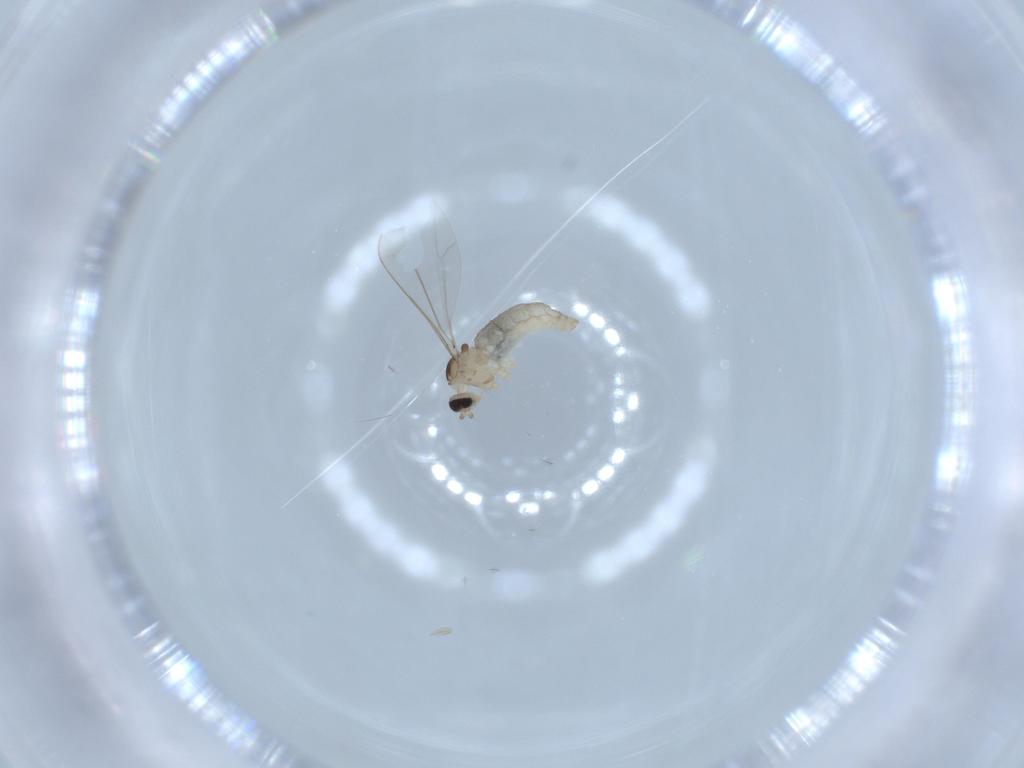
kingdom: Animalia
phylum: Arthropoda
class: Insecta
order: Diptera
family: Cecidomyiidae
